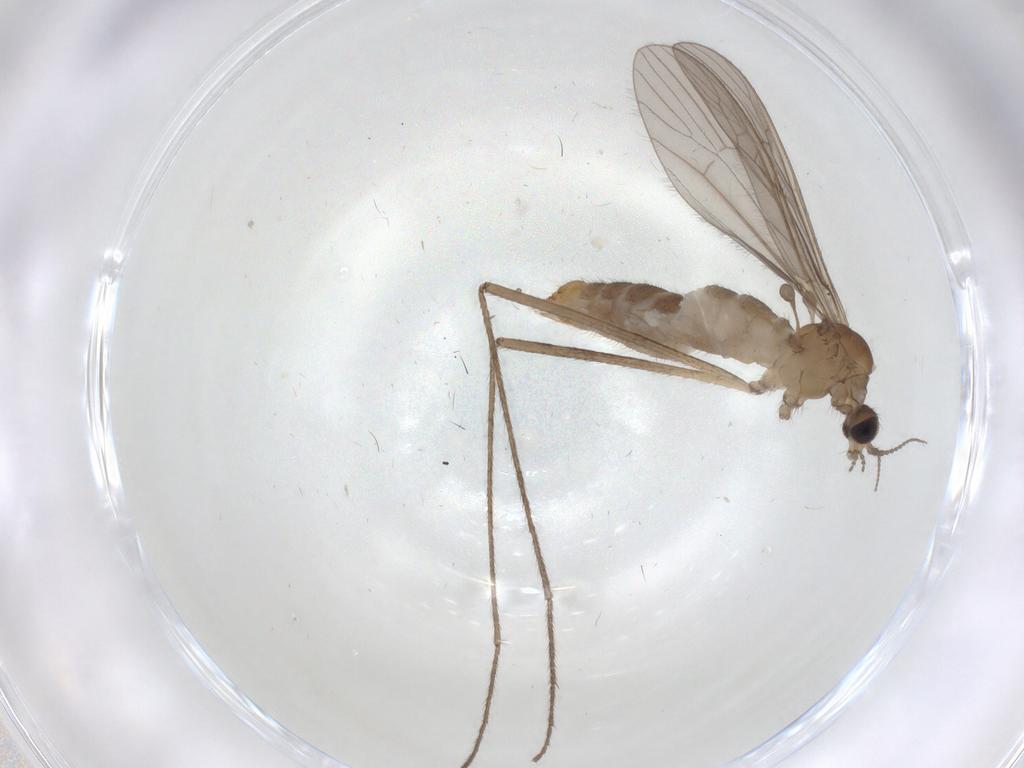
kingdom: Animalia
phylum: Arthropoda
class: Insecta
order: Diptera
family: Limoniidae
